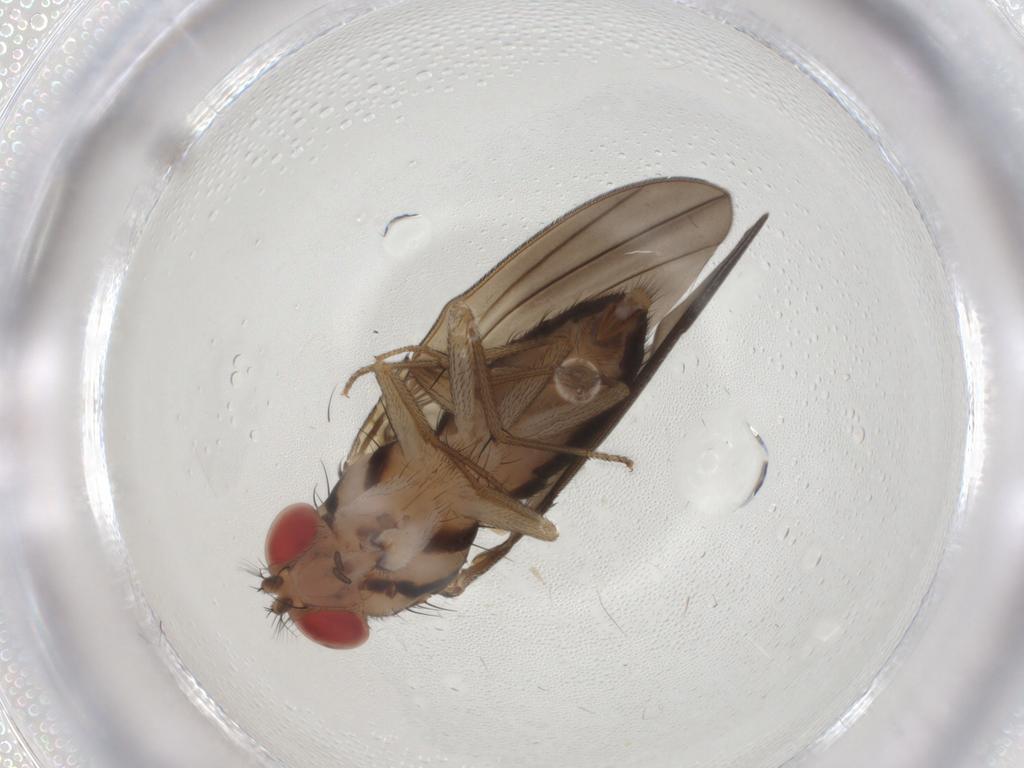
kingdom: Animalia
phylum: Arthropoda
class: Insecta
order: Diptera
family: Drosophilidae
